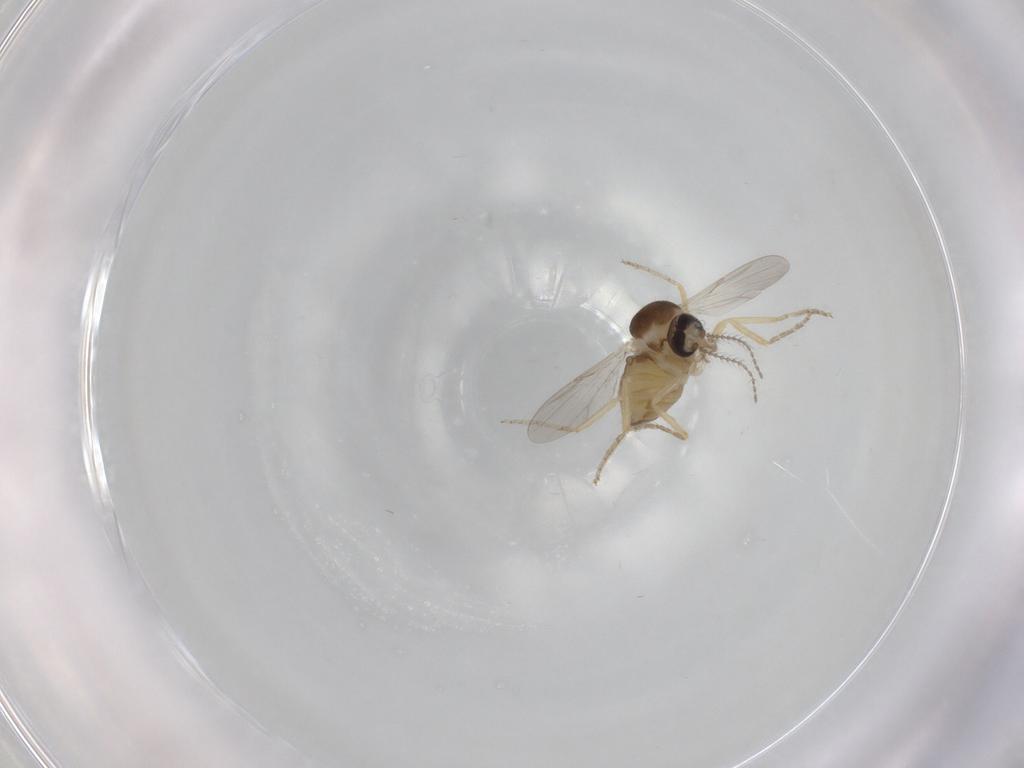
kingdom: Animalia
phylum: Arthropoda
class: Insecta
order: Diptera
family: Ceratopogonidae
